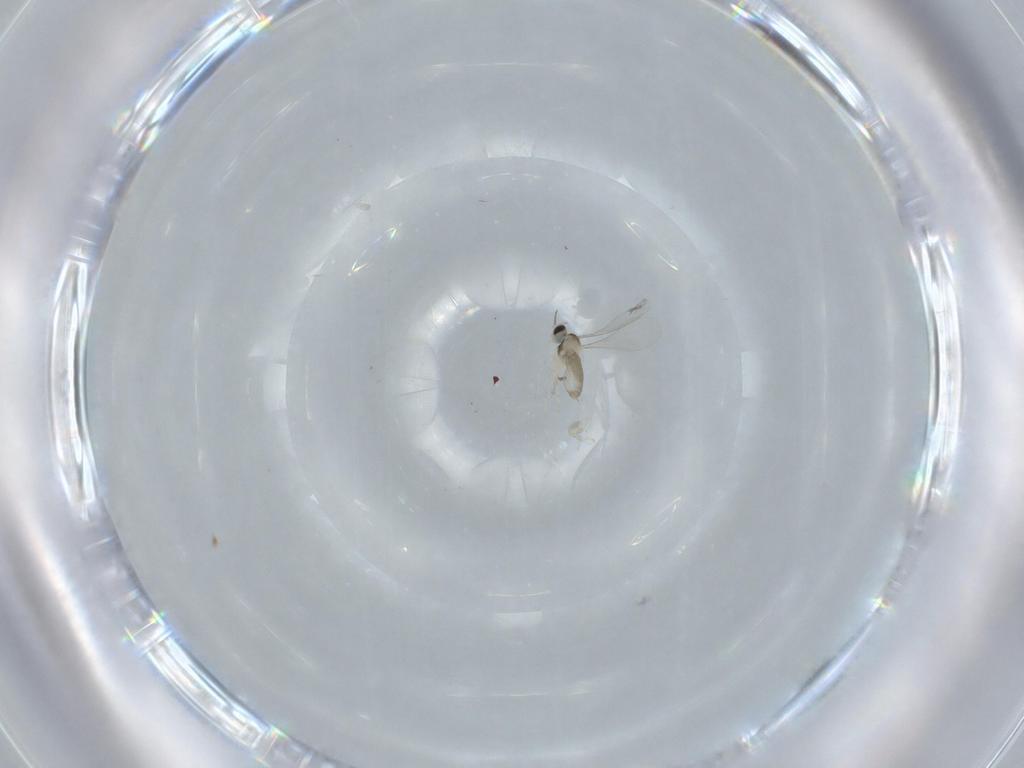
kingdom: Animalia
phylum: Arthropoda
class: Insecta
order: Diptera
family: Cecidomyiidae
